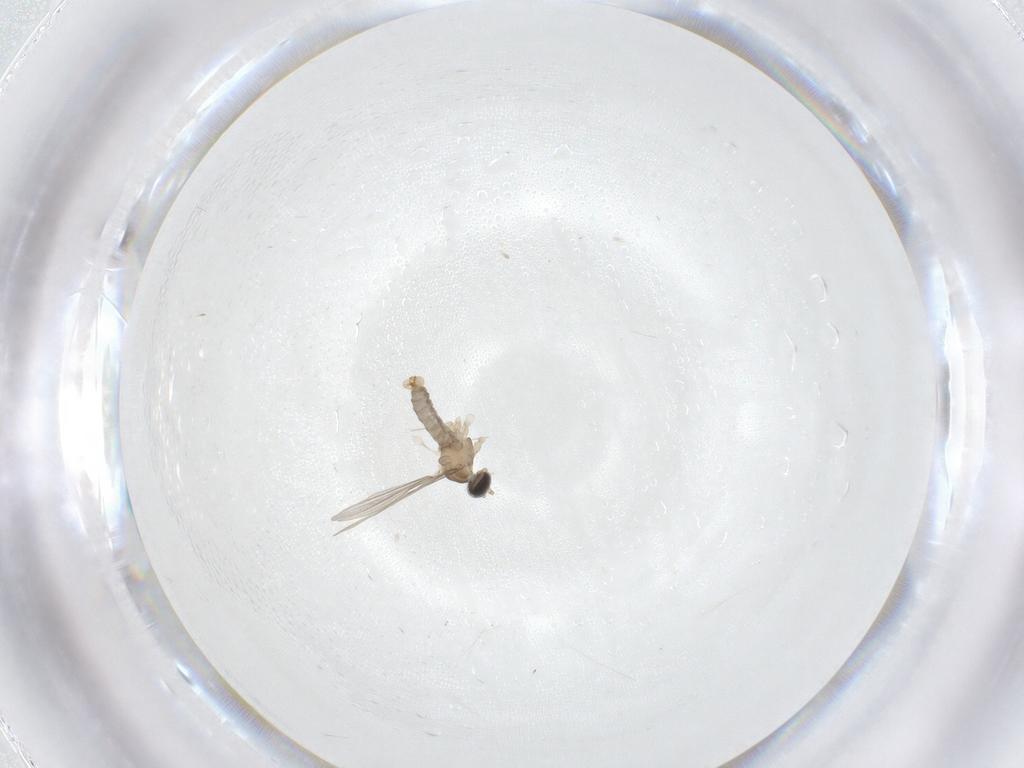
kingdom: Animalia
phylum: Arthropoda
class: Insecta
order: Diptera
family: Cecidomyiidae
